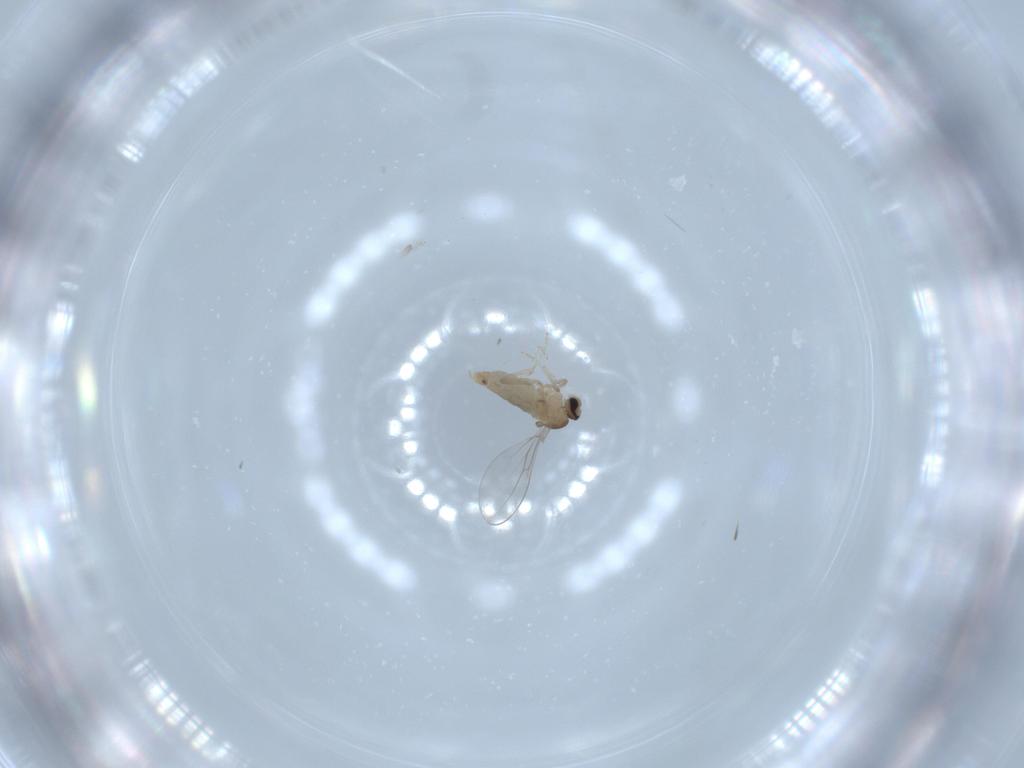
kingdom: Animalia
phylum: Arthropoda
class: Insecta
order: Diptera
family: Cecidomyiidae
